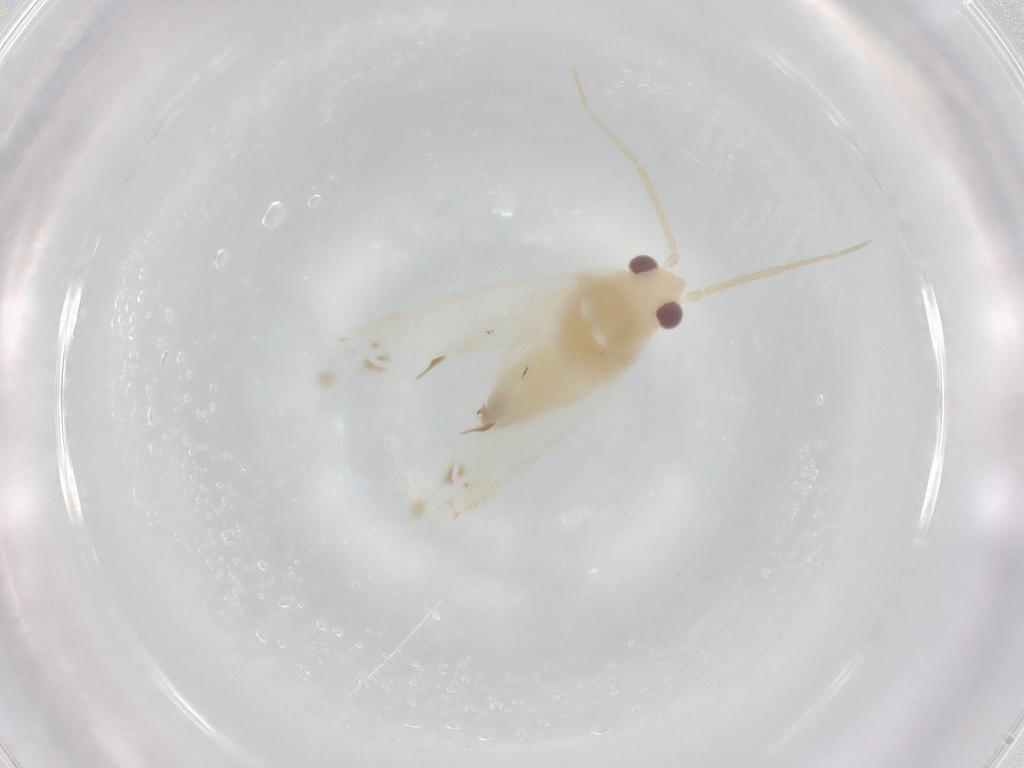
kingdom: Animalia
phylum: Arthropoda
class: Insecta
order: Hemiptera
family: Miridae
